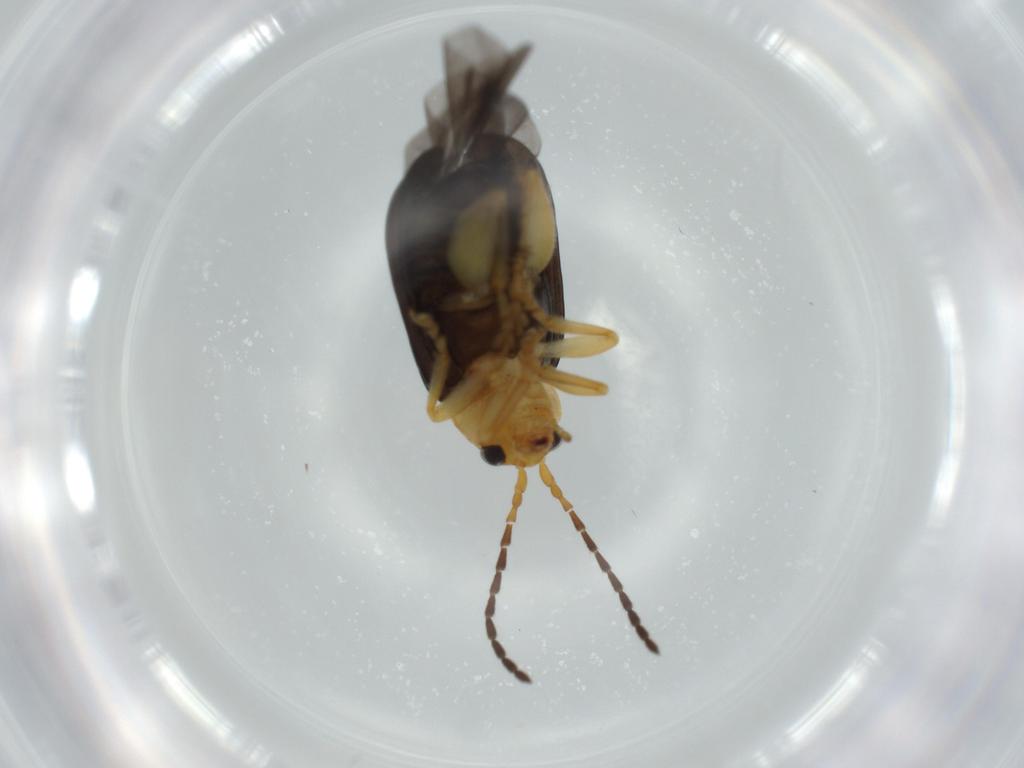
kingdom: Animalia
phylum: Arthropoda
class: Insecta
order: Coleoptera
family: Chrysomelidae
